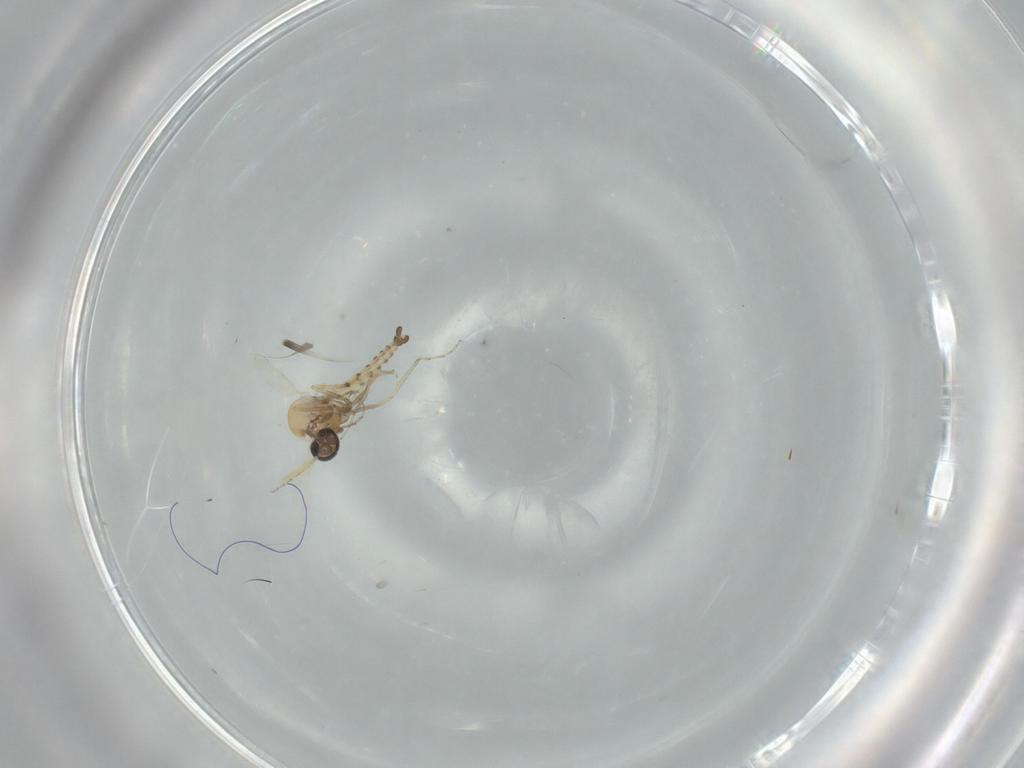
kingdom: Animalia
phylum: Arthropoda
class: Insecta
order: Diptera
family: Ceratopogonidae
